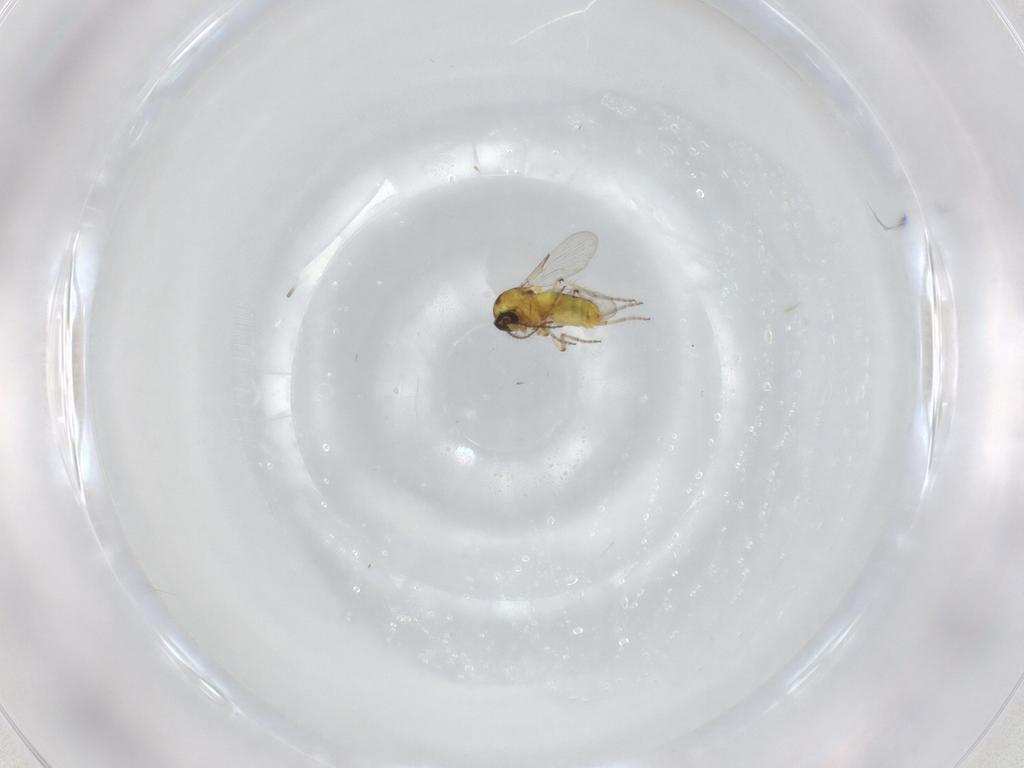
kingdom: Animalia
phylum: Arthropoda
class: Insecta
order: Diptera
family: Ceratopogonidae
